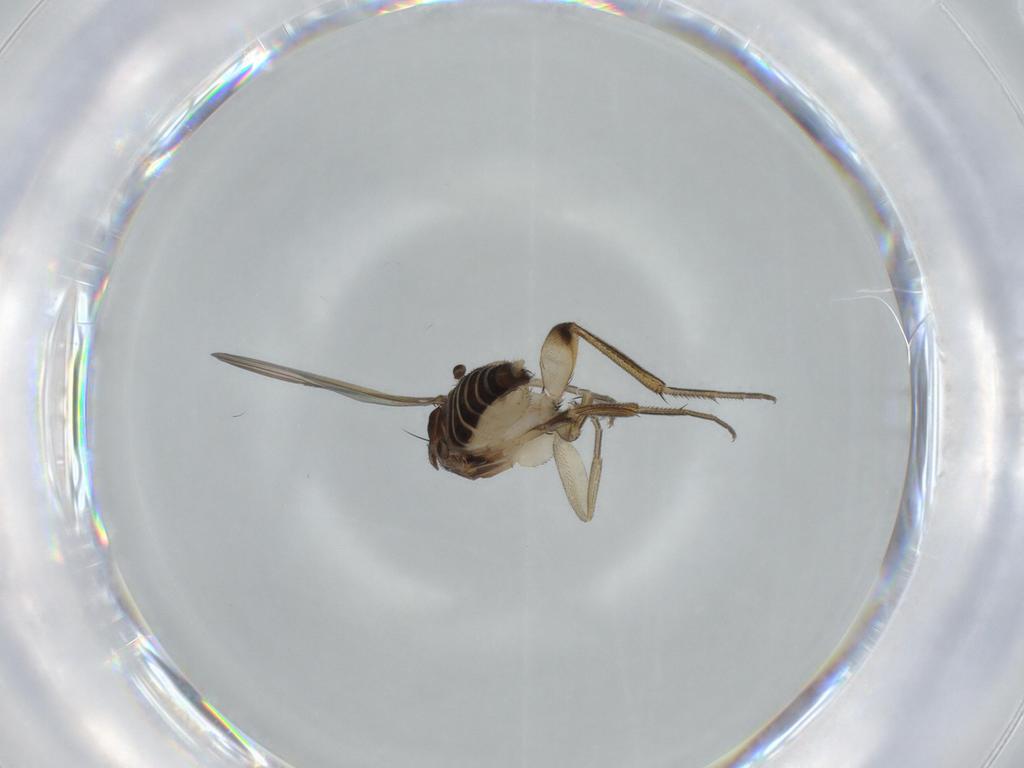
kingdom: Animalia
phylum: Arthropoda
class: Insecta
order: Diptera
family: Phoridae
